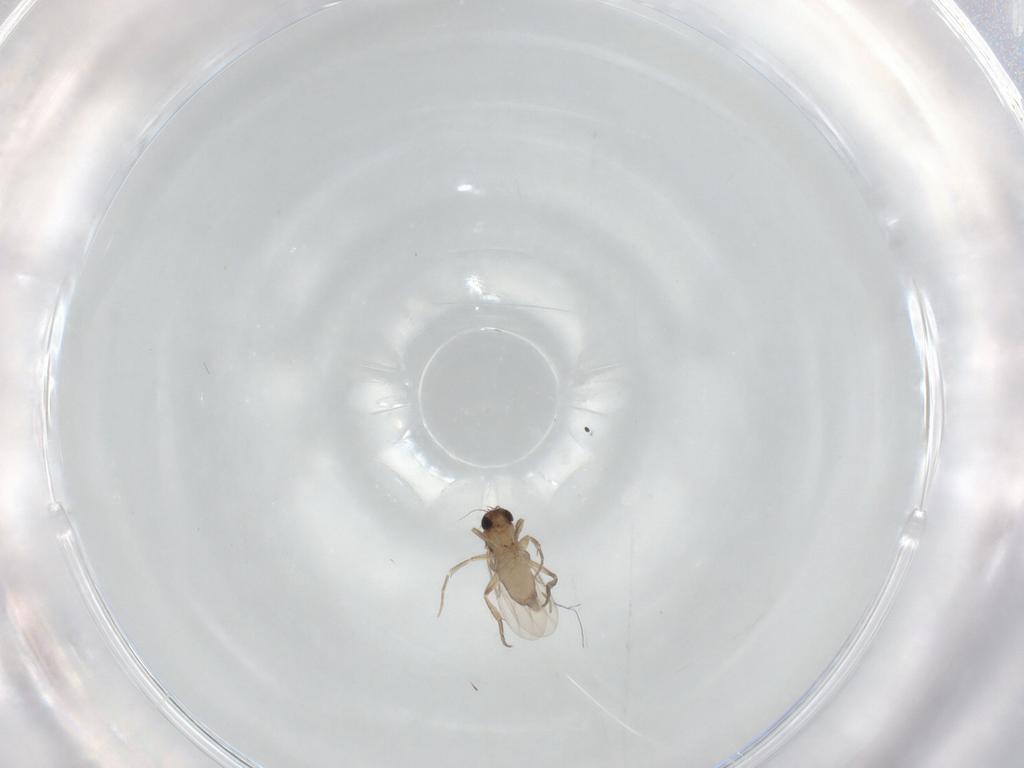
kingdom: Animalia
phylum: Arthropoda
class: Insecta
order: Diptera
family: Phoridae
